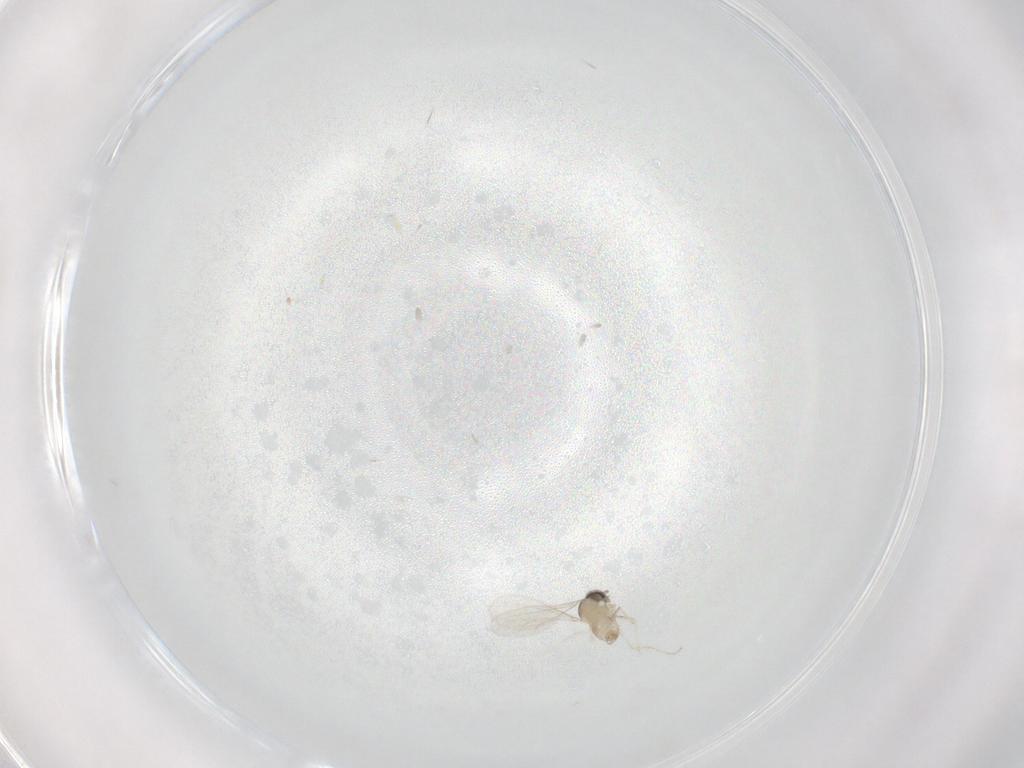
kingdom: Animalia
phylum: Arthropoda
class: Insecta
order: Diptera
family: Cecidomyiidae
